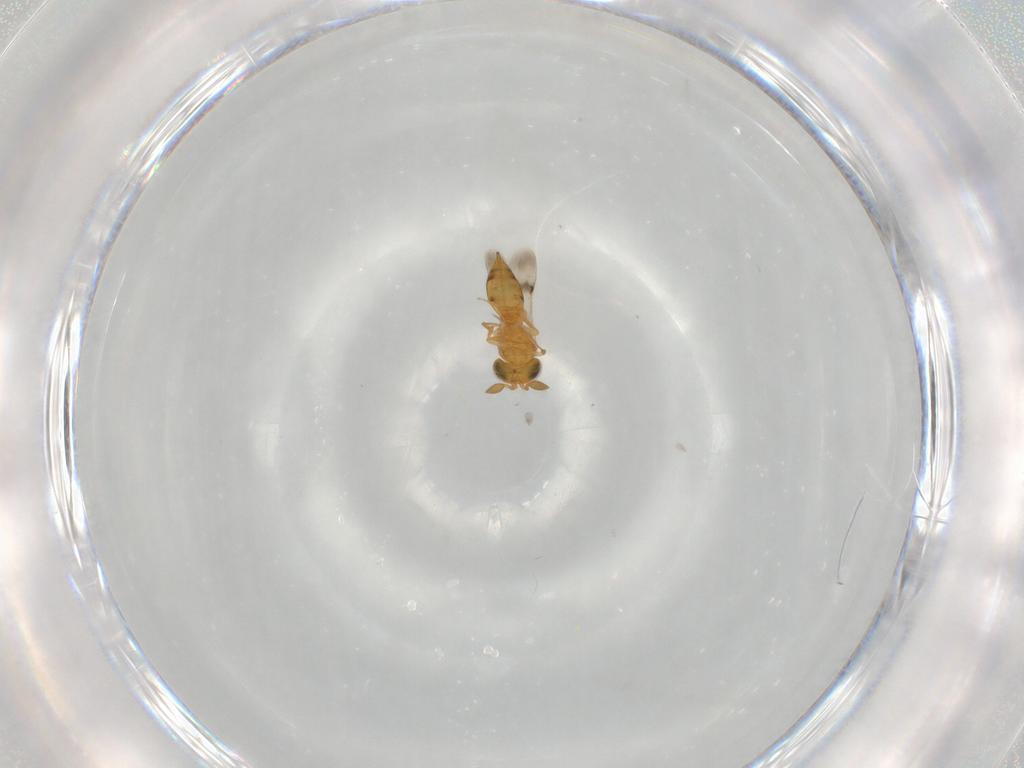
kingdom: Animalia
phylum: Arthropoda
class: Insecta
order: Hymenoptera
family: Scelionidae
